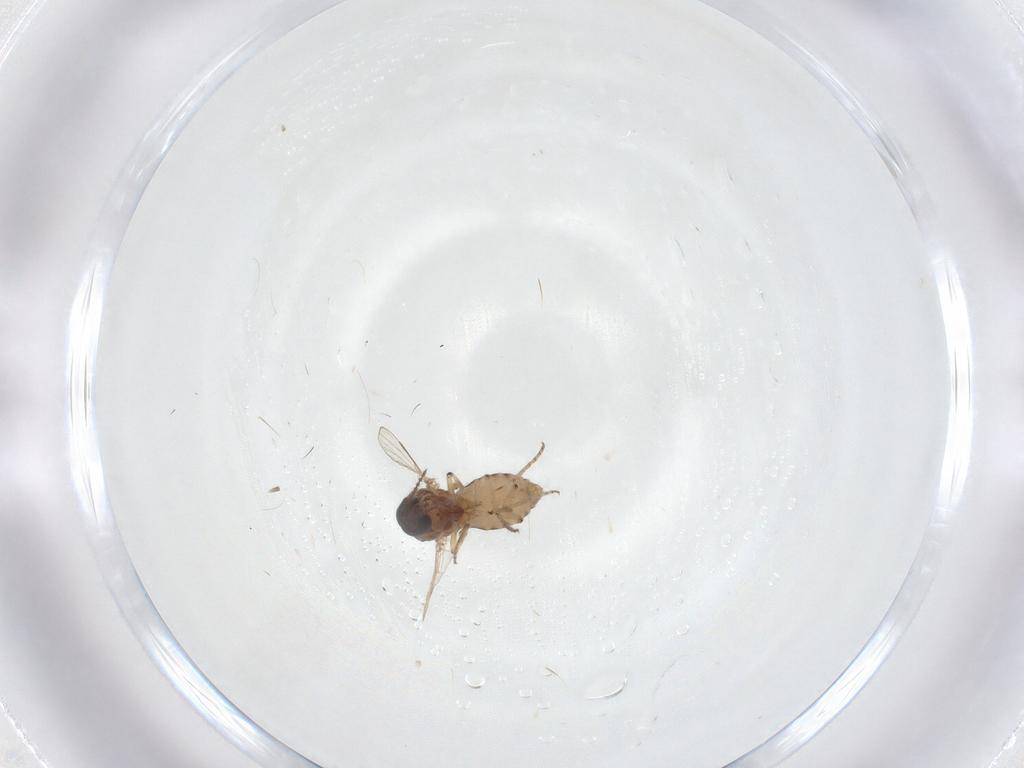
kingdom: Animalia
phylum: Arthropoda
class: Insecta
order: Diptera
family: Ceratopogonidae
